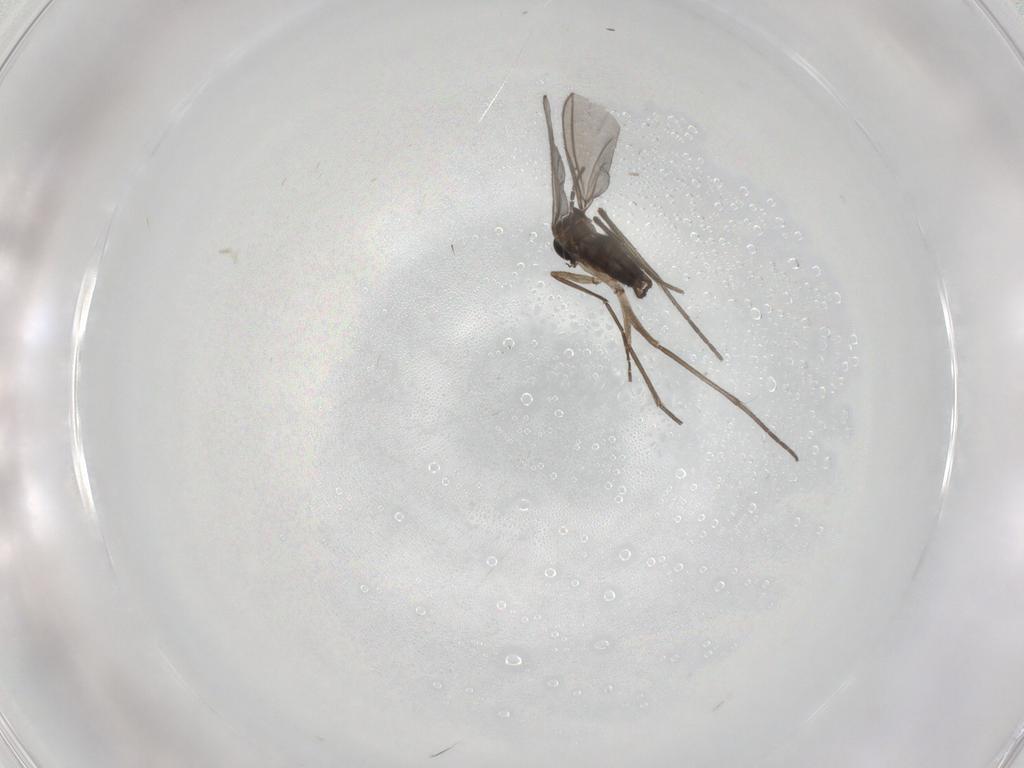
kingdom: Animalia
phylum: Arthropoda
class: Insecta
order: Diptera
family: Sciaridae
